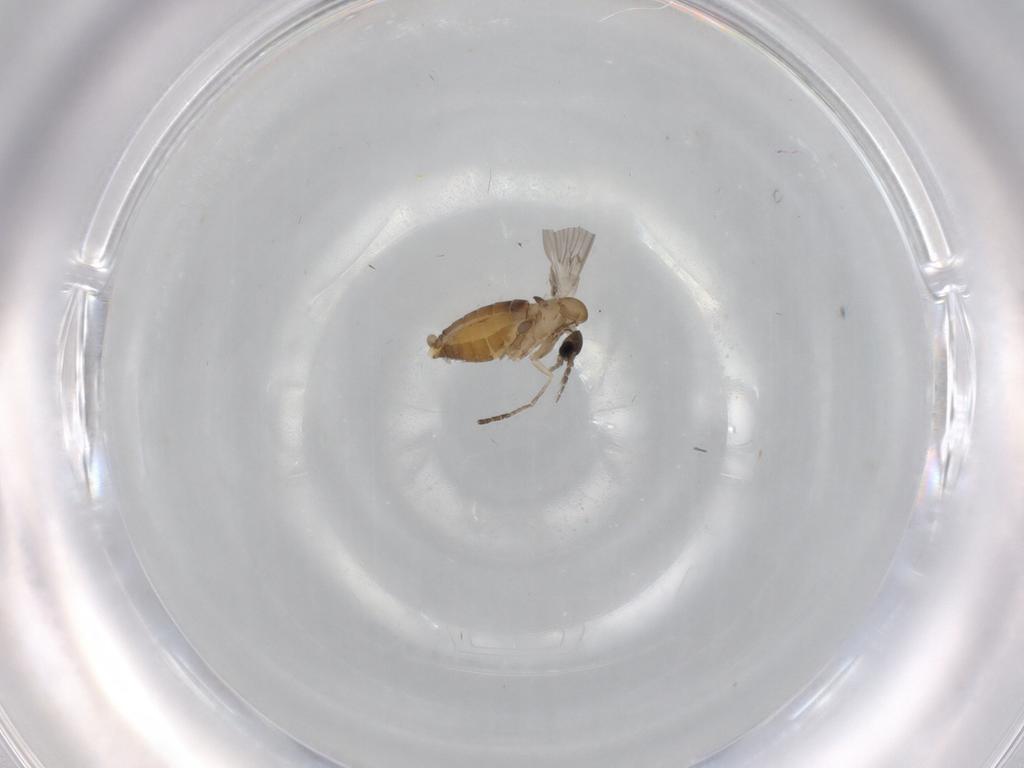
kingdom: Animalia
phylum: Arthropoda
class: Insecta
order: Diptera
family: Psychodidae
